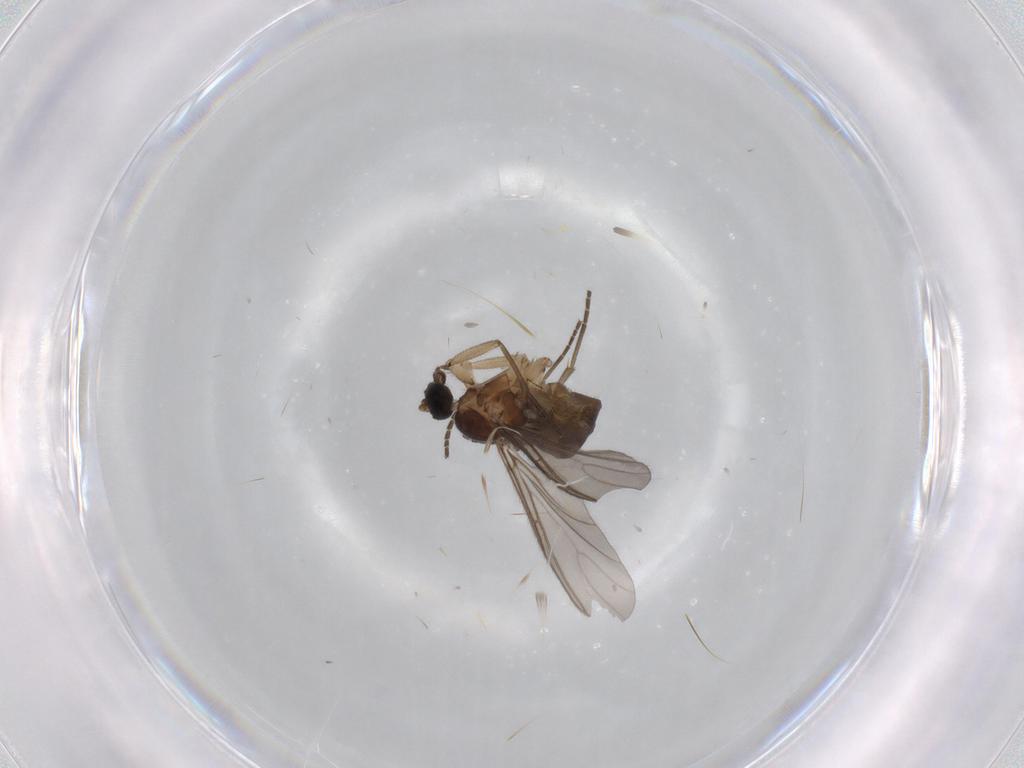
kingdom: Animalia
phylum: Arthropoda
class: Insecta
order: Diptera
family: Sciaridae
